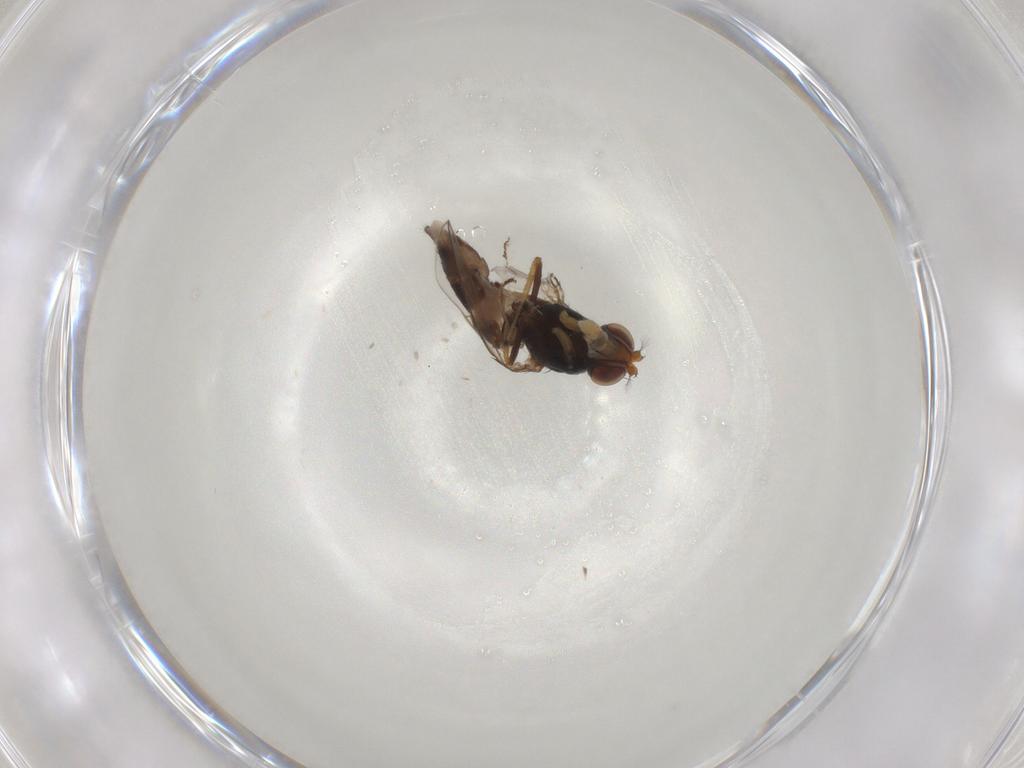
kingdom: Animalia
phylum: Arthropoda
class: Insecta
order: Diptera
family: Ephydridae
